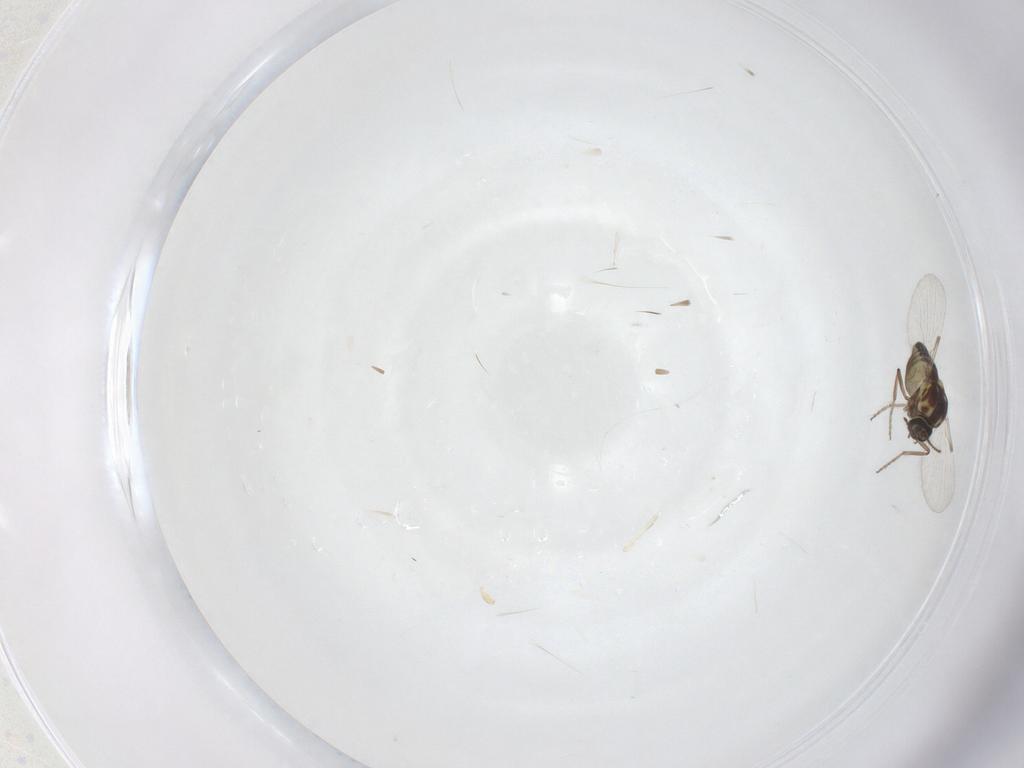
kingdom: Animalia
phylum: Arthropoda
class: Insecta
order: Diptera
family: Ceratopogonidae
